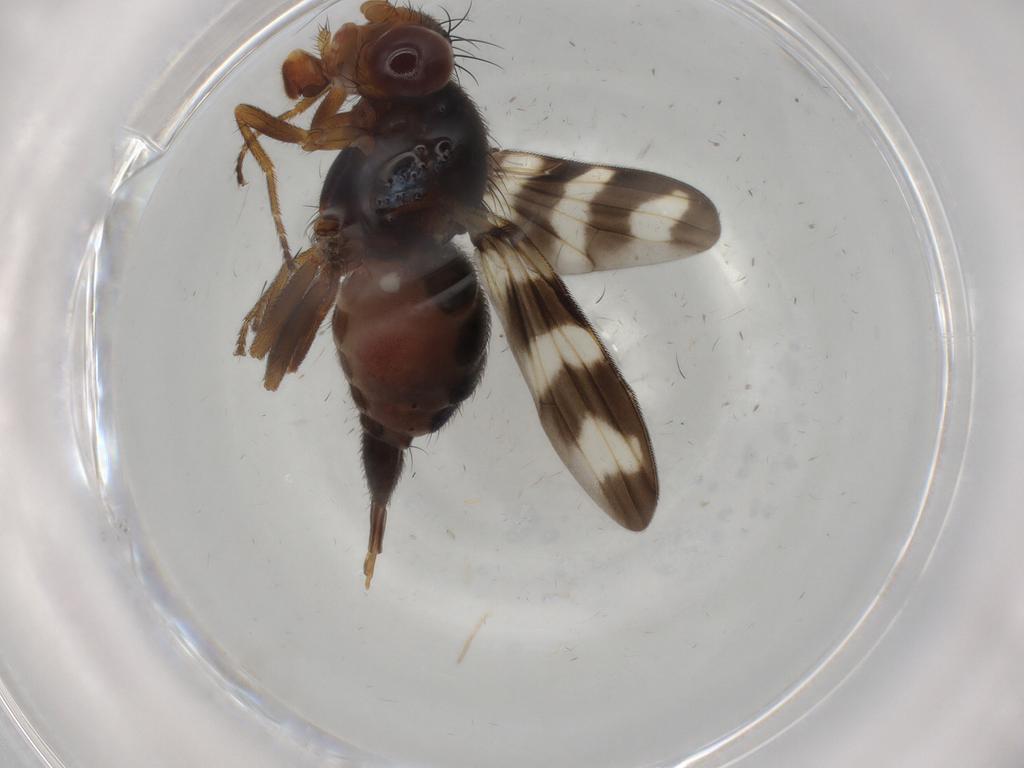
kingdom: Animalia
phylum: Arthropoda
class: Insecta
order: Diptera
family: Ulidiidae
